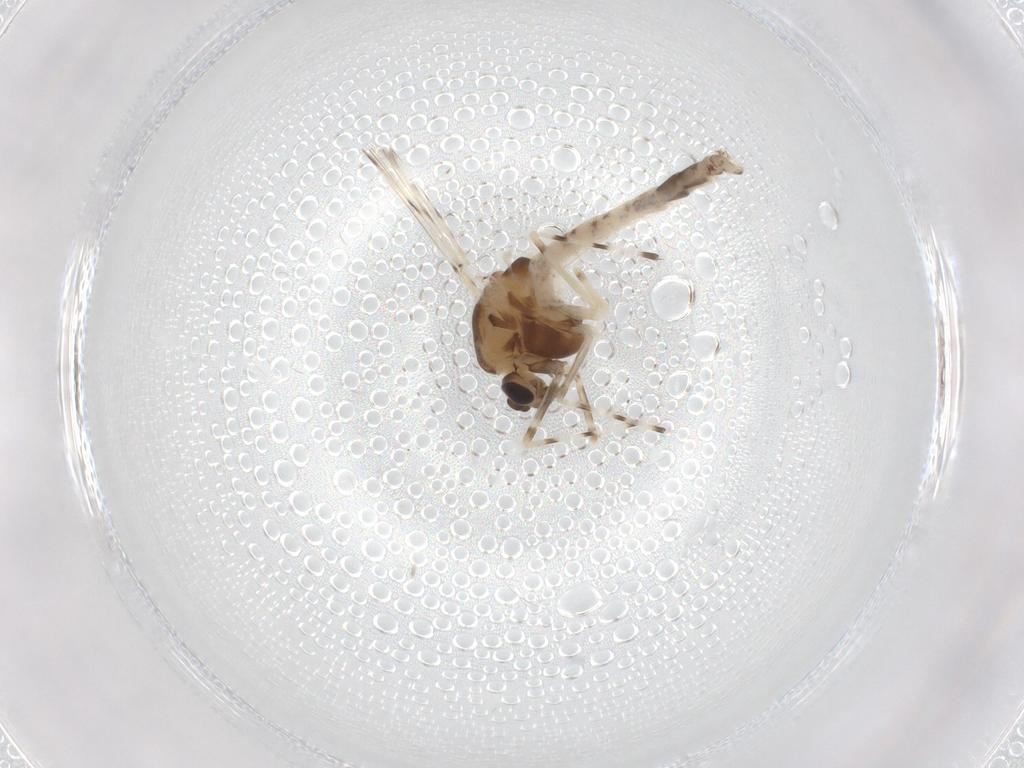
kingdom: Animalia
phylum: Arthropoda
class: Insecta
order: Diptera
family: Chironomidae
